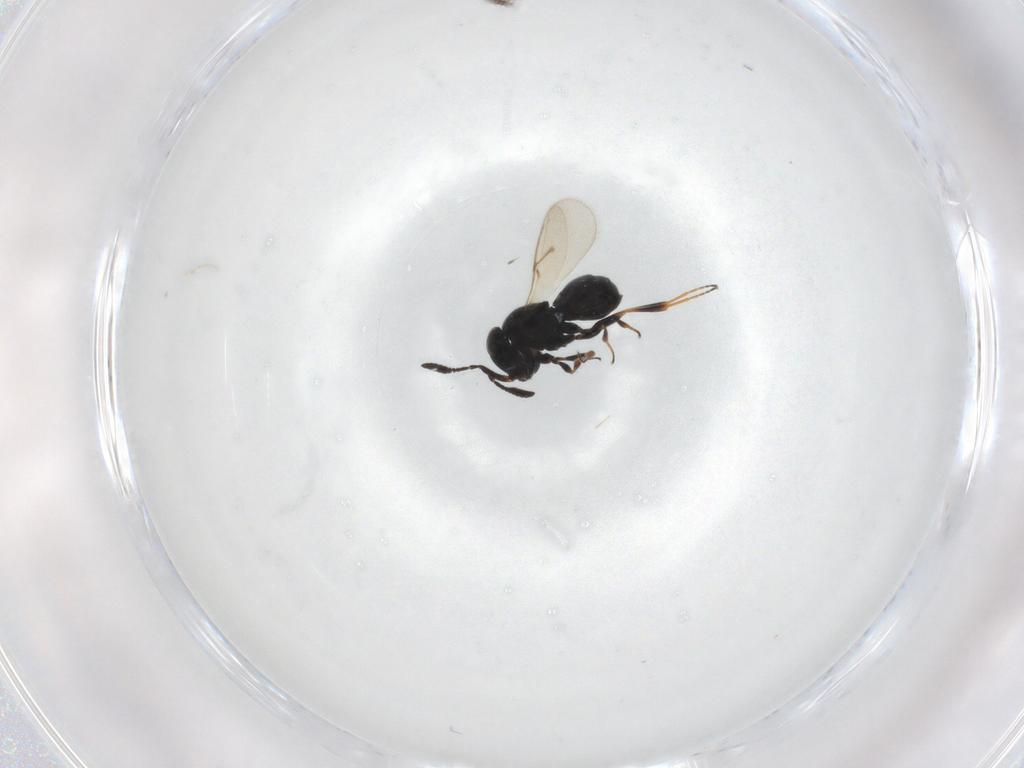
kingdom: Animalia
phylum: Arthropoda
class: Insecta
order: Hymenoptera
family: Scelionidae
